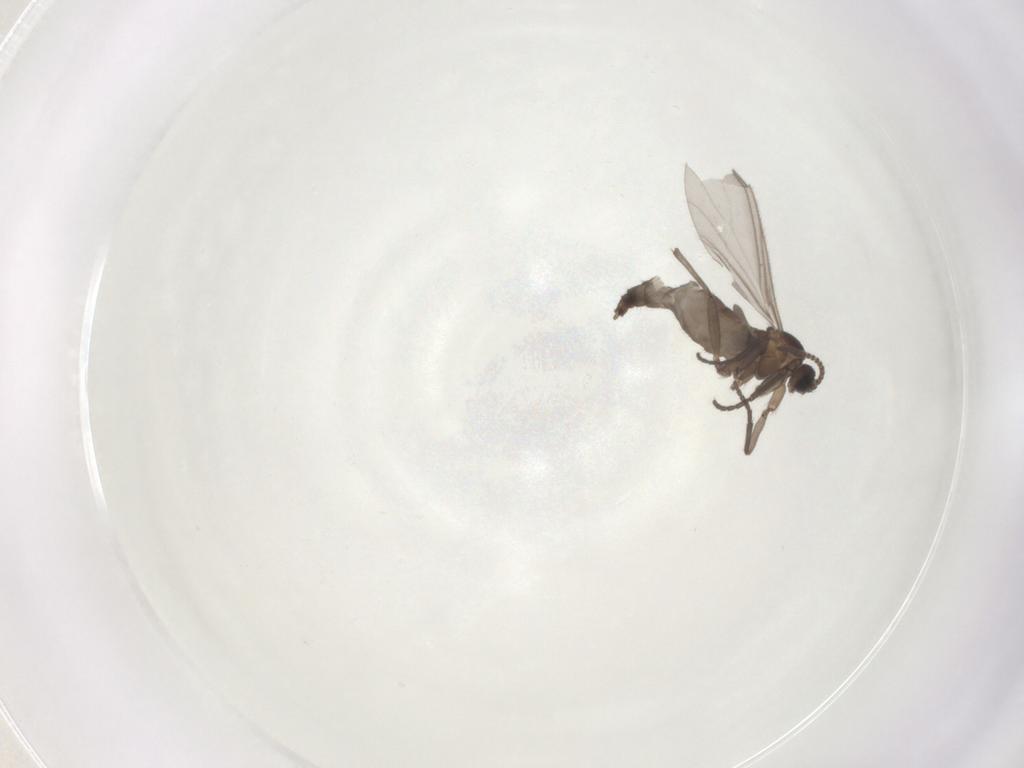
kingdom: Animalia
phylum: Arthropoda
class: Insecta
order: Diptera
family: Sciaridae
